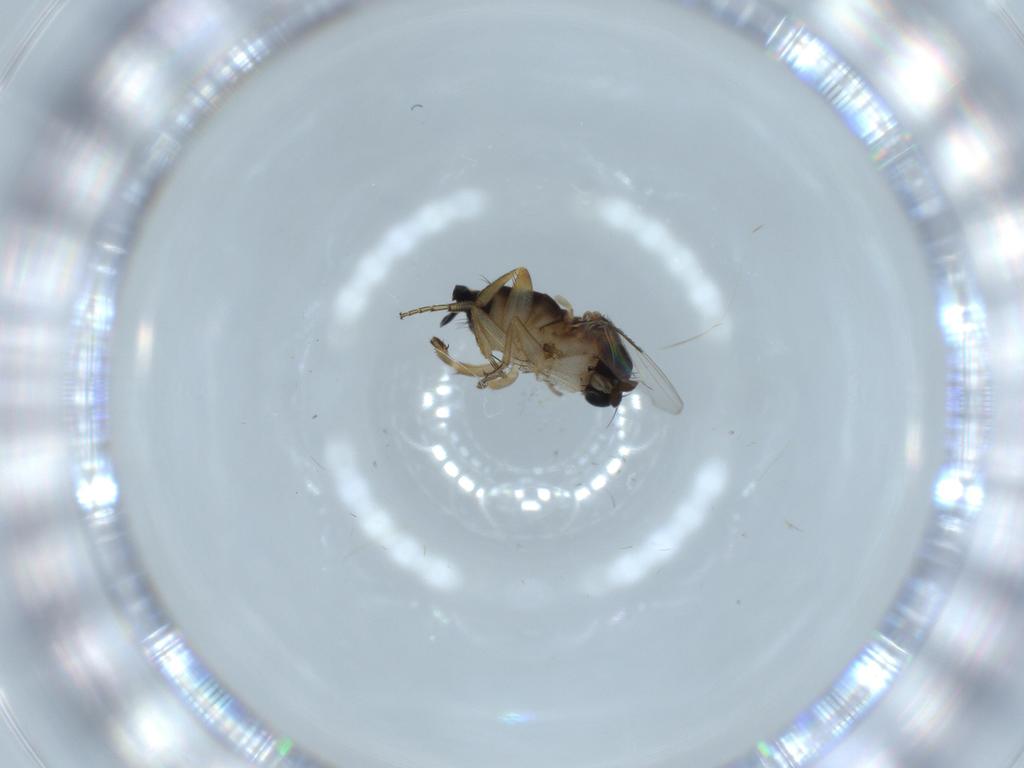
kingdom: Animalia
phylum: Arthropoda
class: Insecta
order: Diptera
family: Phoridae
